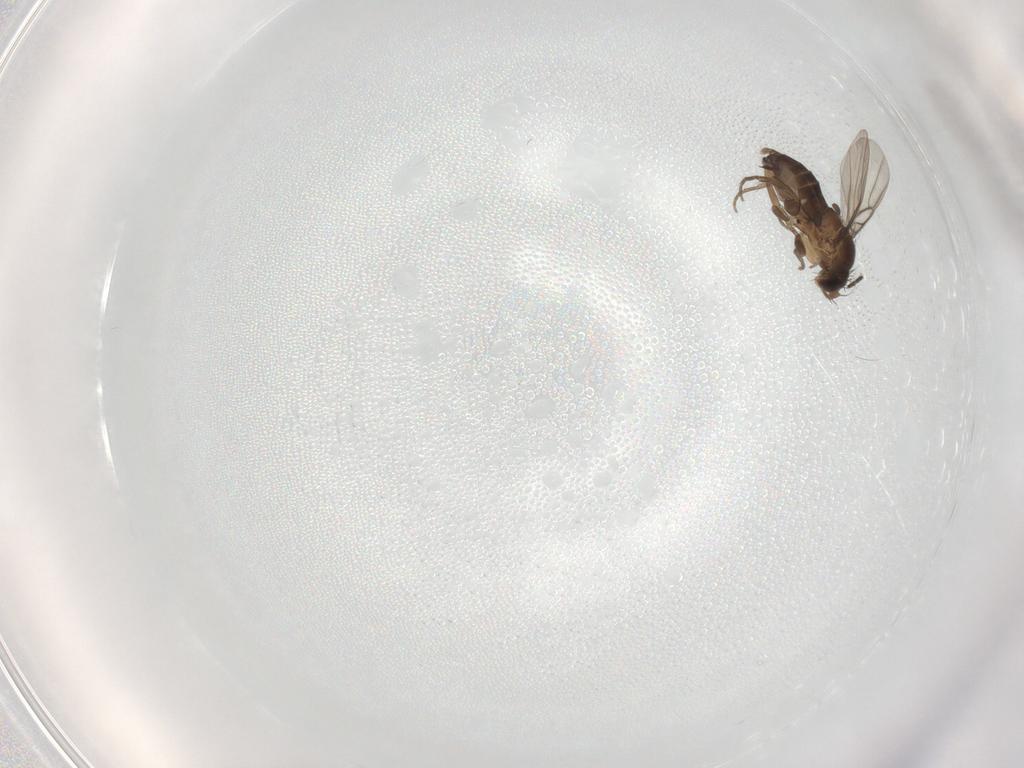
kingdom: Animalia
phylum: Arthropoda
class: Insecta
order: Diptera
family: Phoridae
